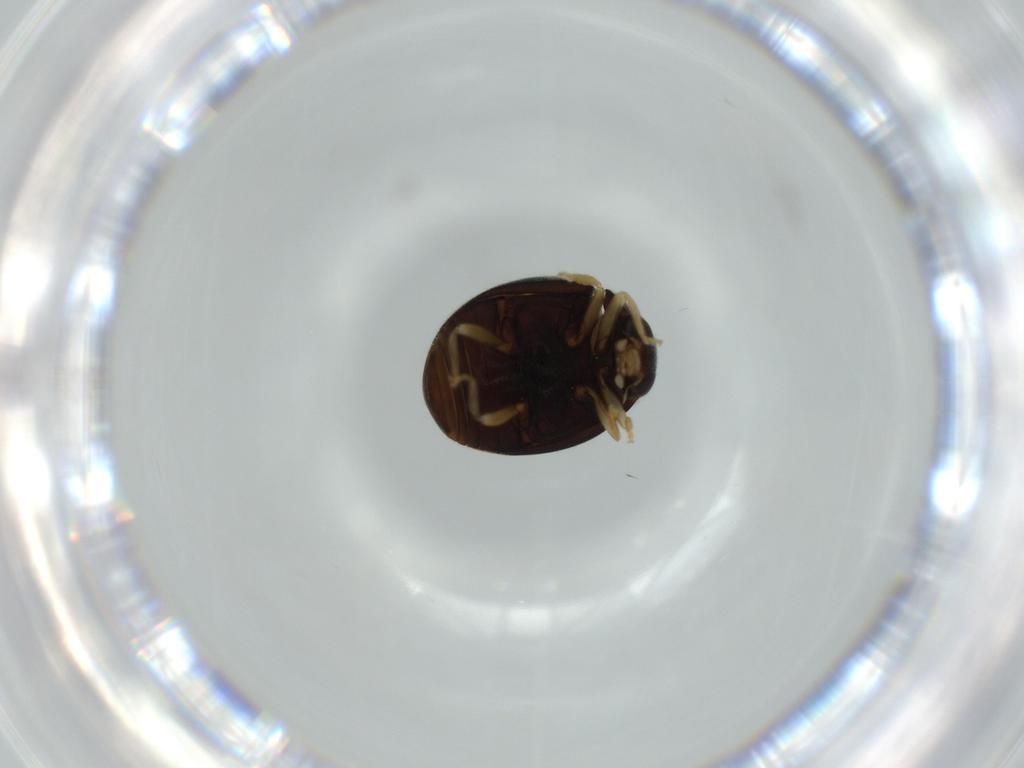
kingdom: Animalia
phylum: Arthropoda
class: Insecta
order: Coleoptera
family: Coccinellidae
